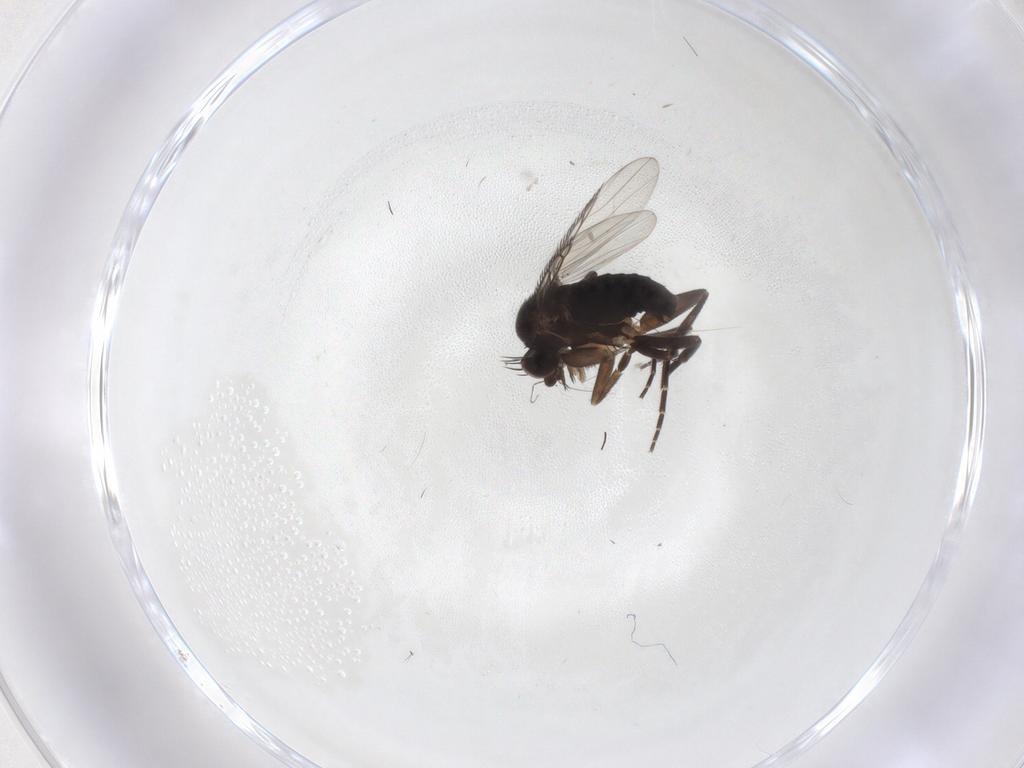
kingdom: Animalia
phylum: Arthropoda
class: Insecta
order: Diptera
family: Phoridae
